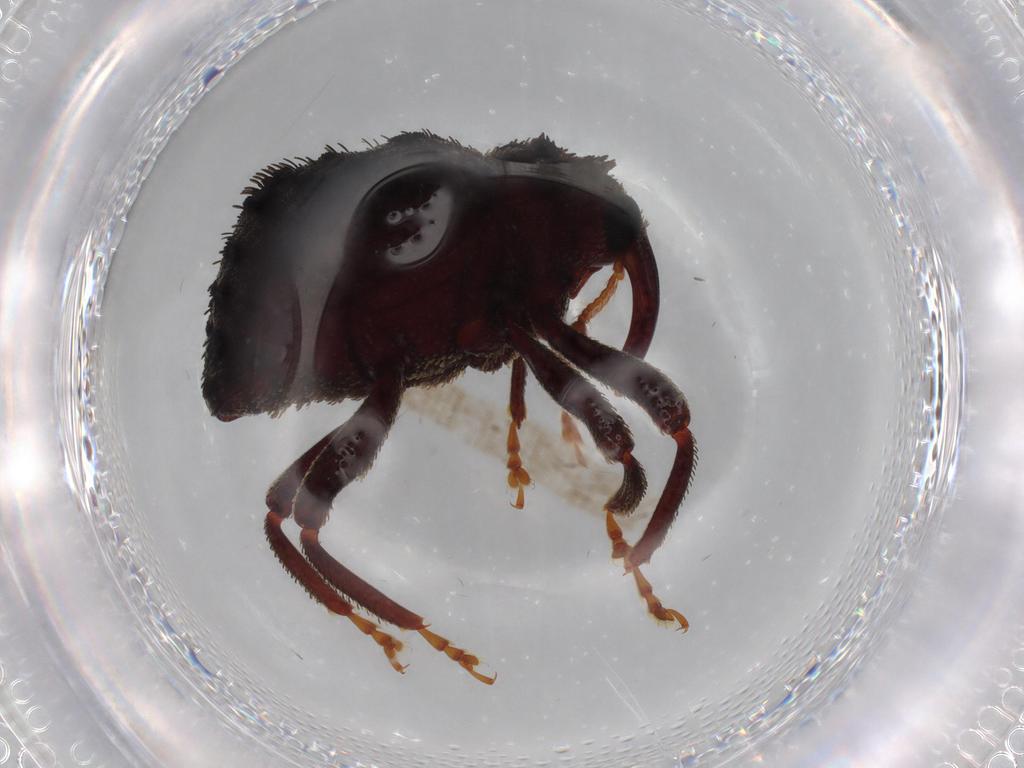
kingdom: Animalia
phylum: Arthropoda
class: Insecta
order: Coleoptera
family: Curculionidae
